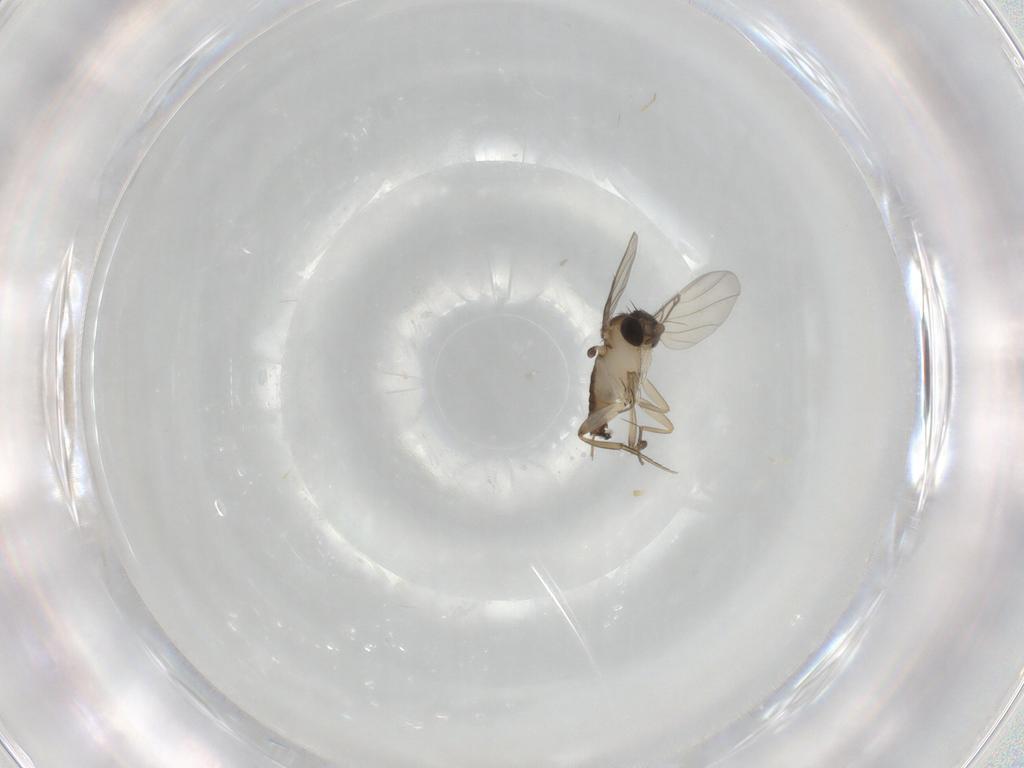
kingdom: Animalia
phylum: Arthropoda
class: Insecta
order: Diptera
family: Phoridae
